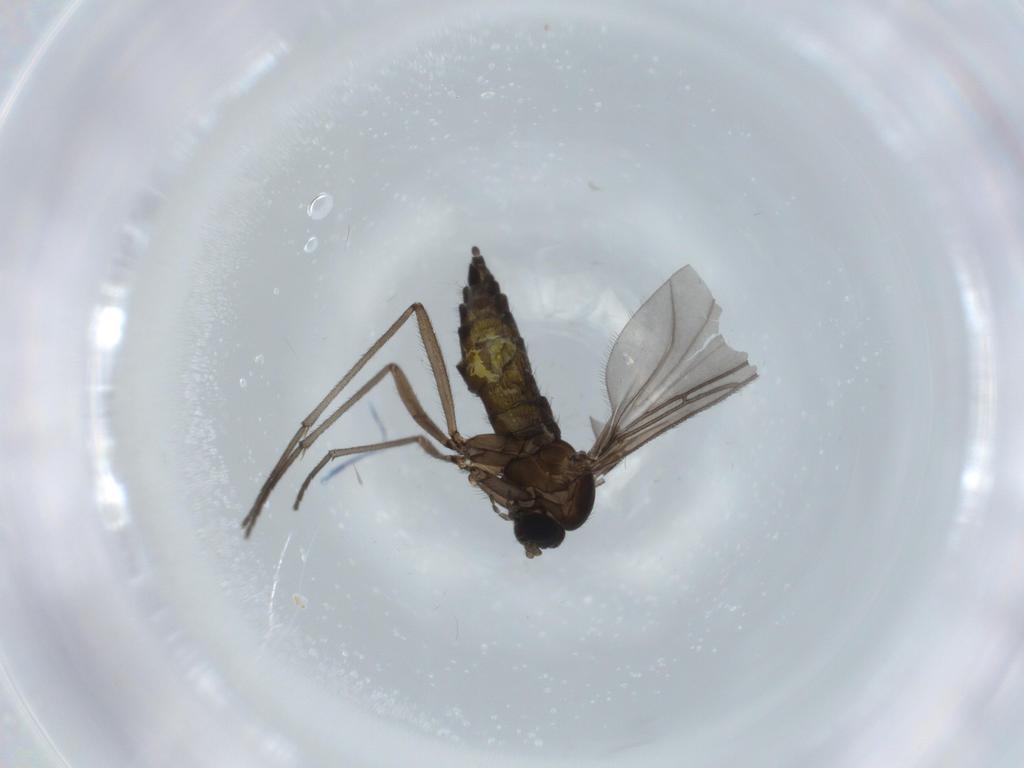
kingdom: Animalia
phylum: Arthropoda
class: Insecta
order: Diptera
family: Sciaridae
